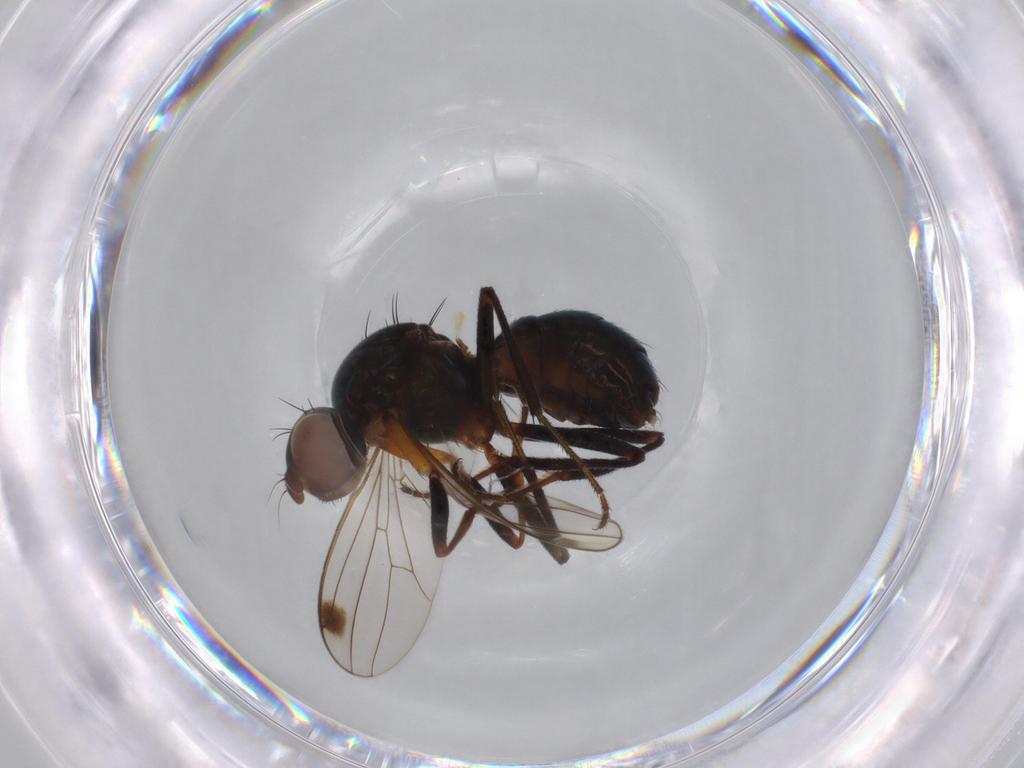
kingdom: Animalia
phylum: Arthropoda
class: Insecta
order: Diptera
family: Sepsidae
